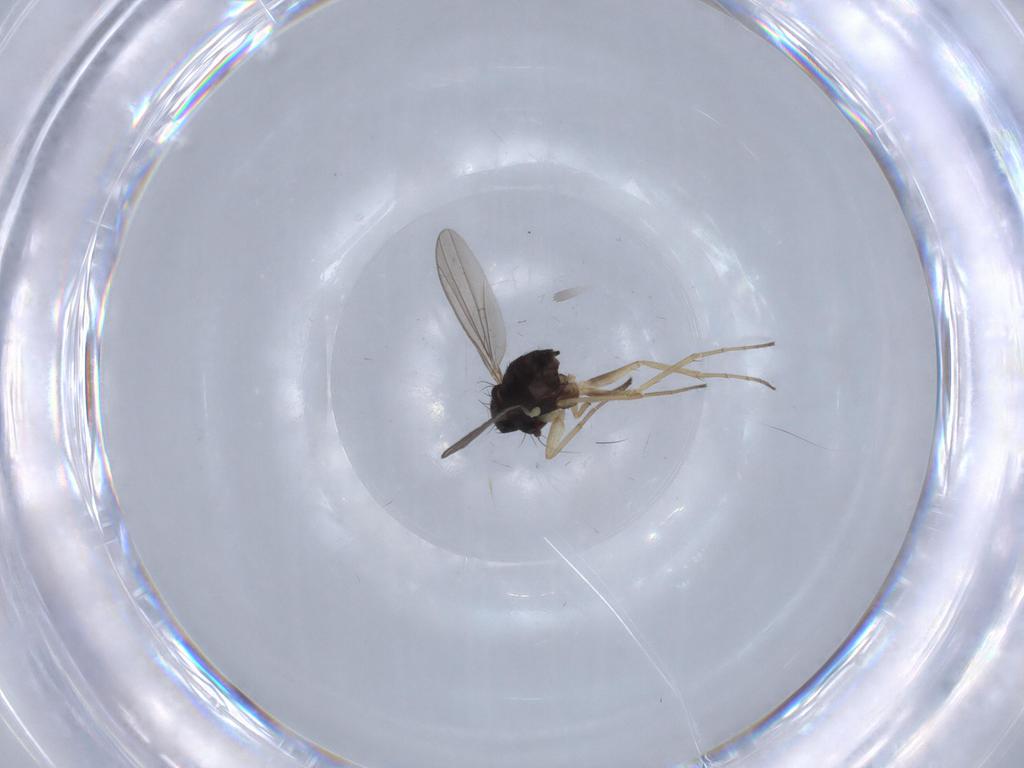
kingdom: Animalia
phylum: Arthropoda
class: Insecta
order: Diptera
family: Dolichopodidae
